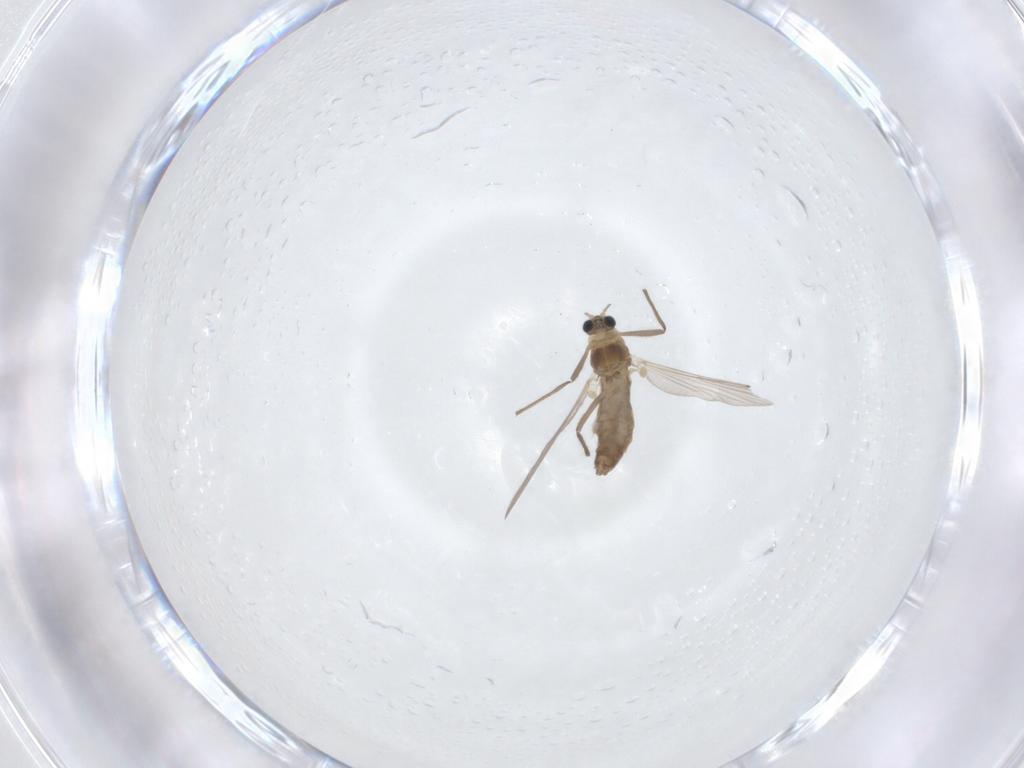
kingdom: Animalia
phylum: Arthropoda
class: Insecta
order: Diptera
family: Chironomidae
